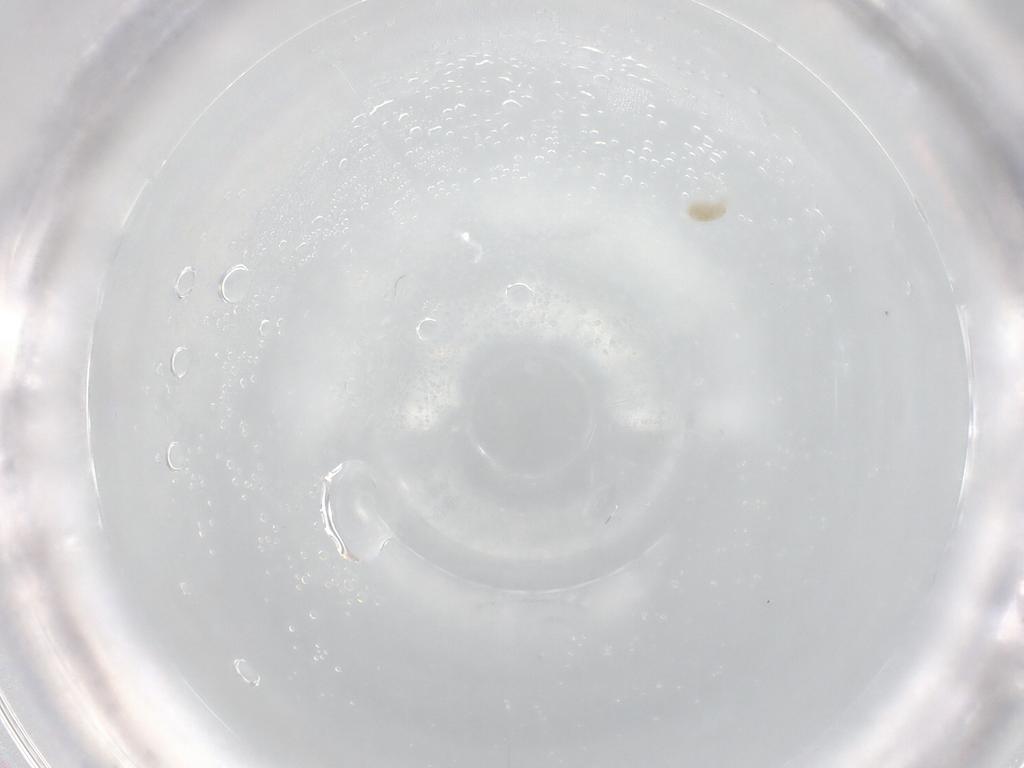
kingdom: Animalia
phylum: Arthropoda
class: Arachnida
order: Trombidiformes
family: Eupodidae
